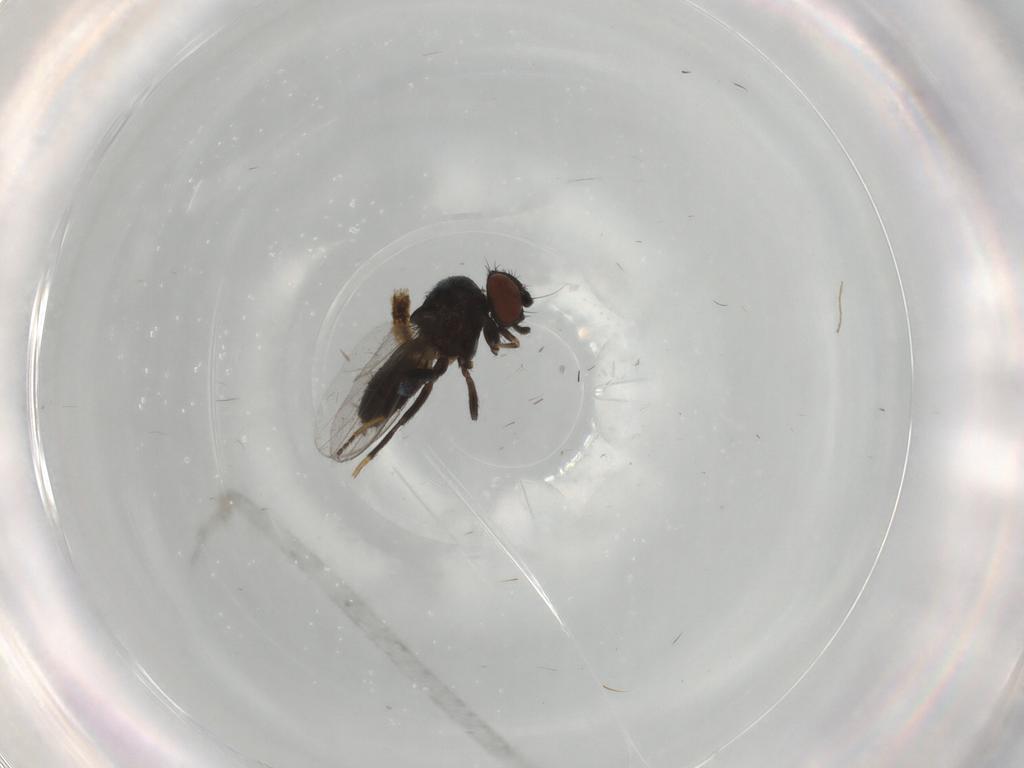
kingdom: Animalia
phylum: Arthropoda
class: Insecta
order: Diptera
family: Milichiidae
